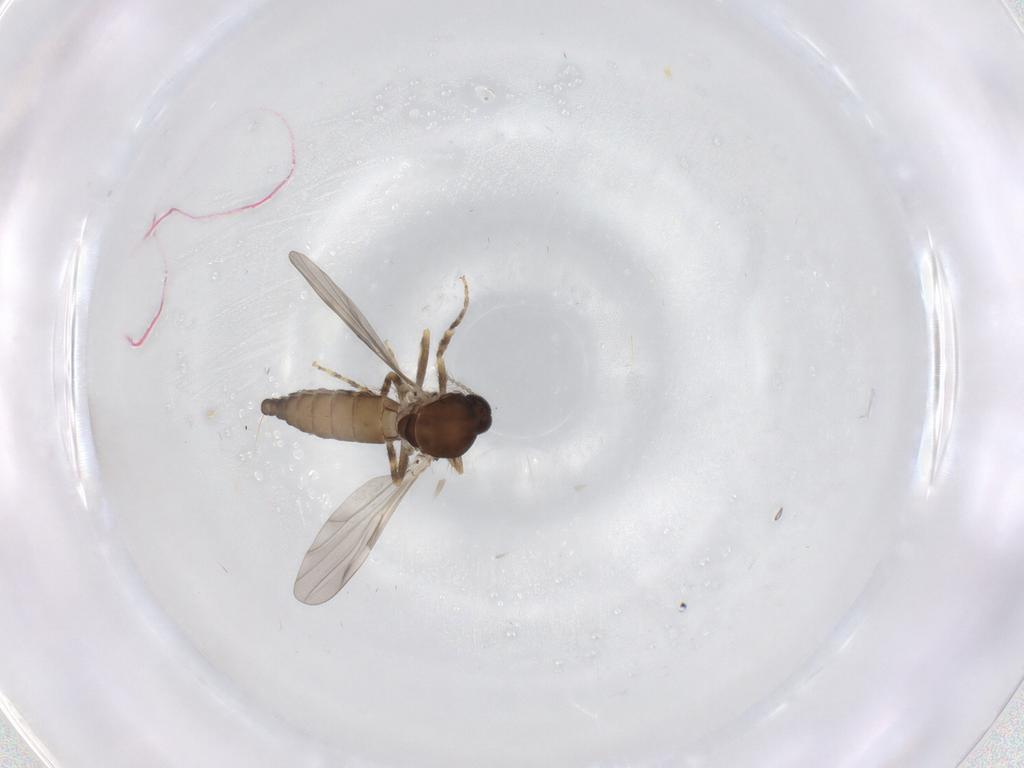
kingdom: Animalia
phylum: Arthropoda
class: Insecta
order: Diptera
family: Ceratopogonidae
